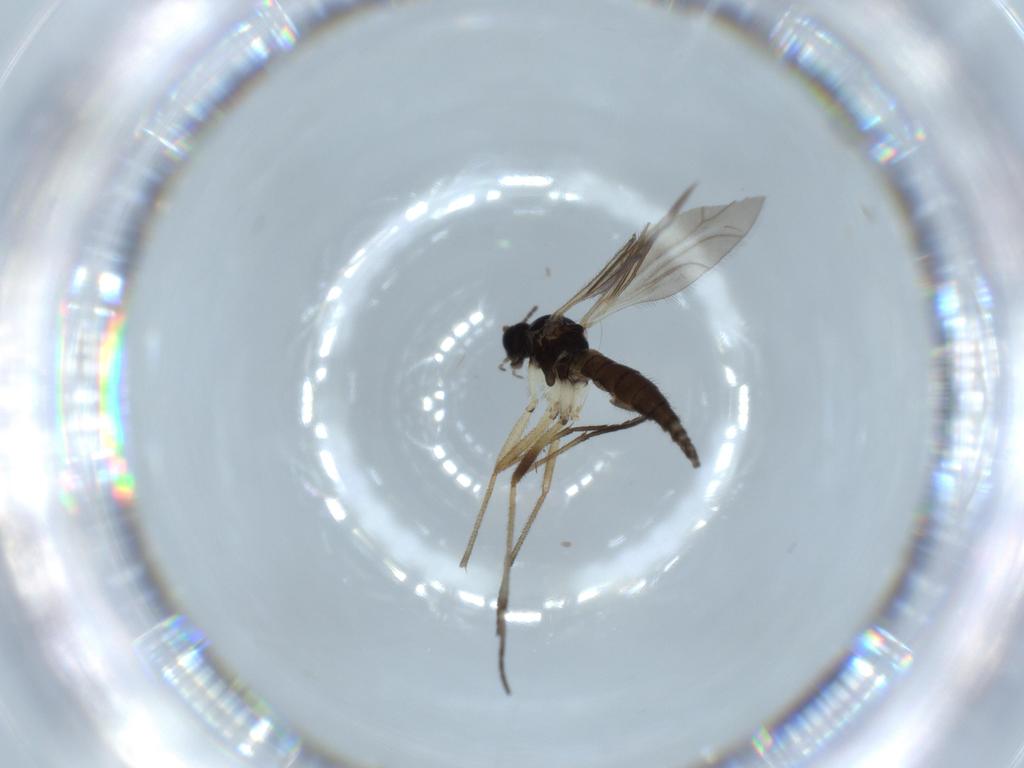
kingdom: Animalia
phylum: Arthropoda
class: Insecta
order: Diptera
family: Sciaridae
